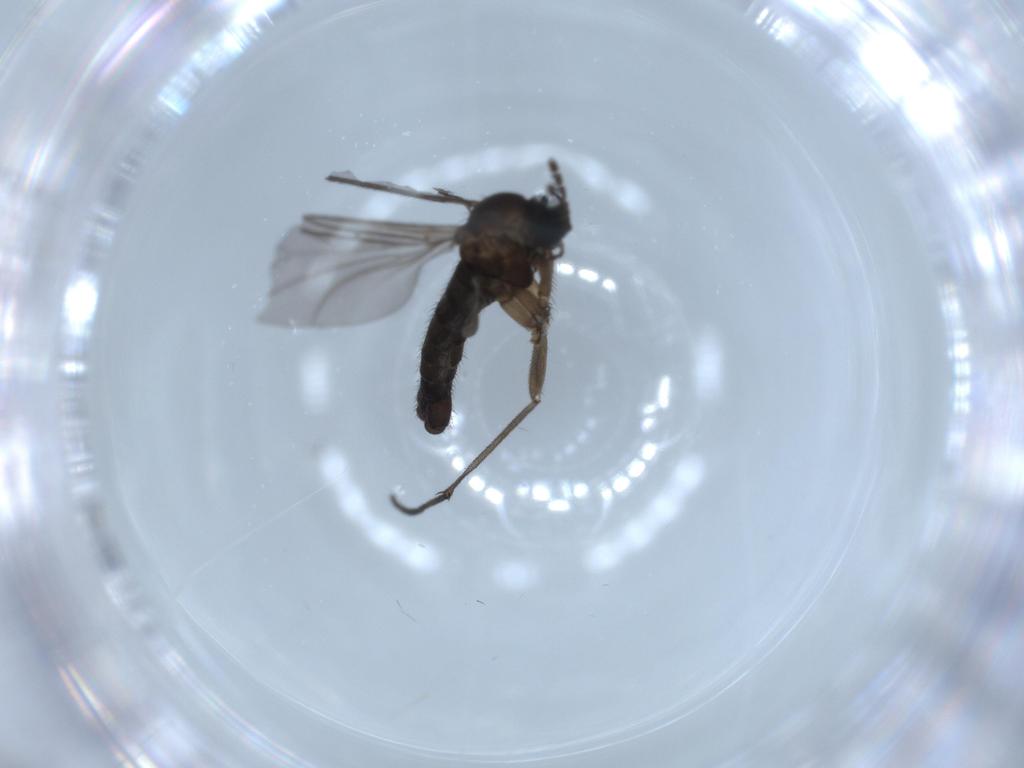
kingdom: Animalia
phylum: Arthropoda
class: Insecta
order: Diptera
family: Sciaridae
